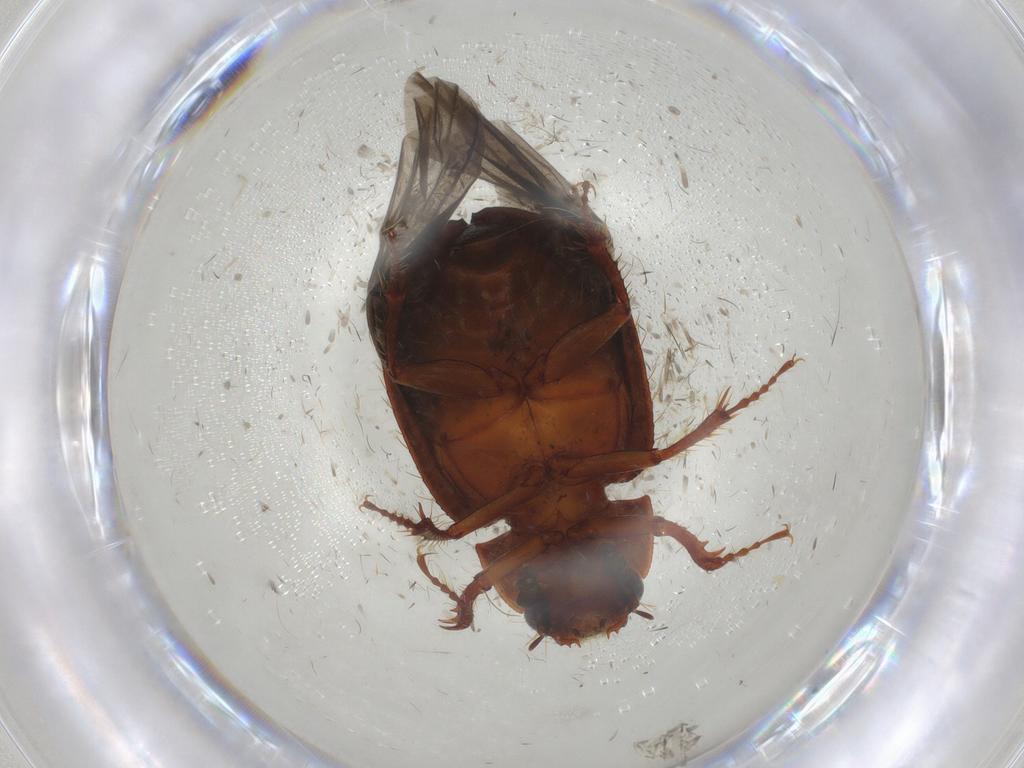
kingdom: Animalia
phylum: Arthropoda
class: Insecta
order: Coleoptera
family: Hybosoridae
